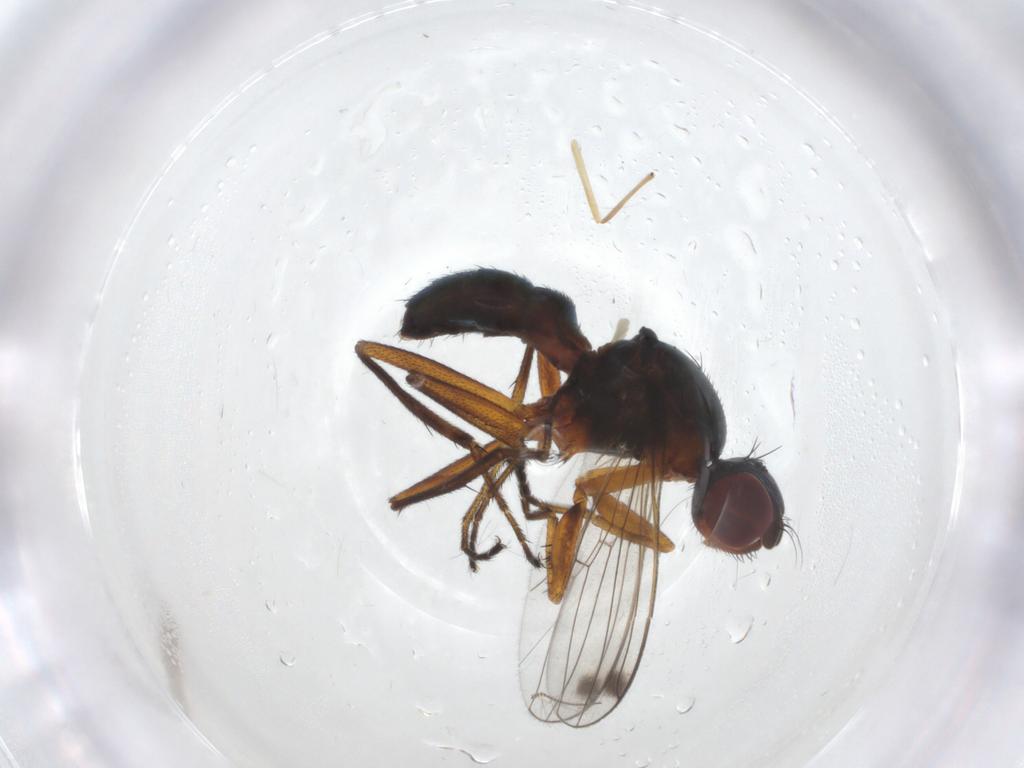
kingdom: Animalia
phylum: Arthropoda
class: Insecta
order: Diptera
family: Sepsidae
